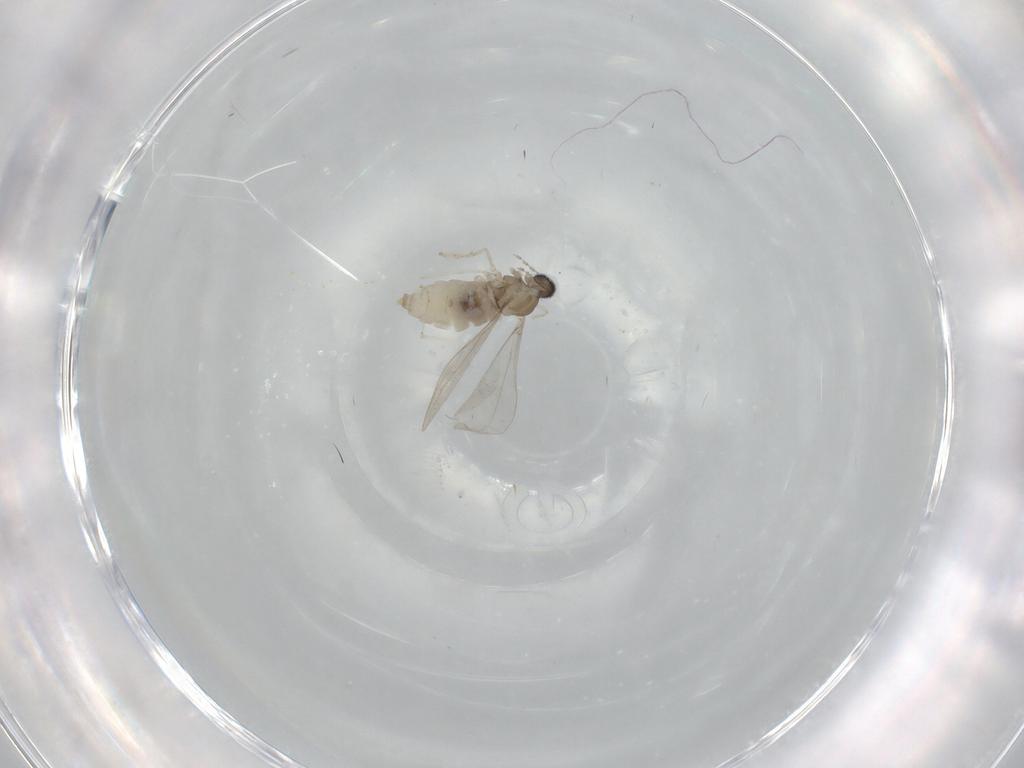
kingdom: Animalia
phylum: Arthropoda
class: Insecta
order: Diptera
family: Cecidomyiidae
